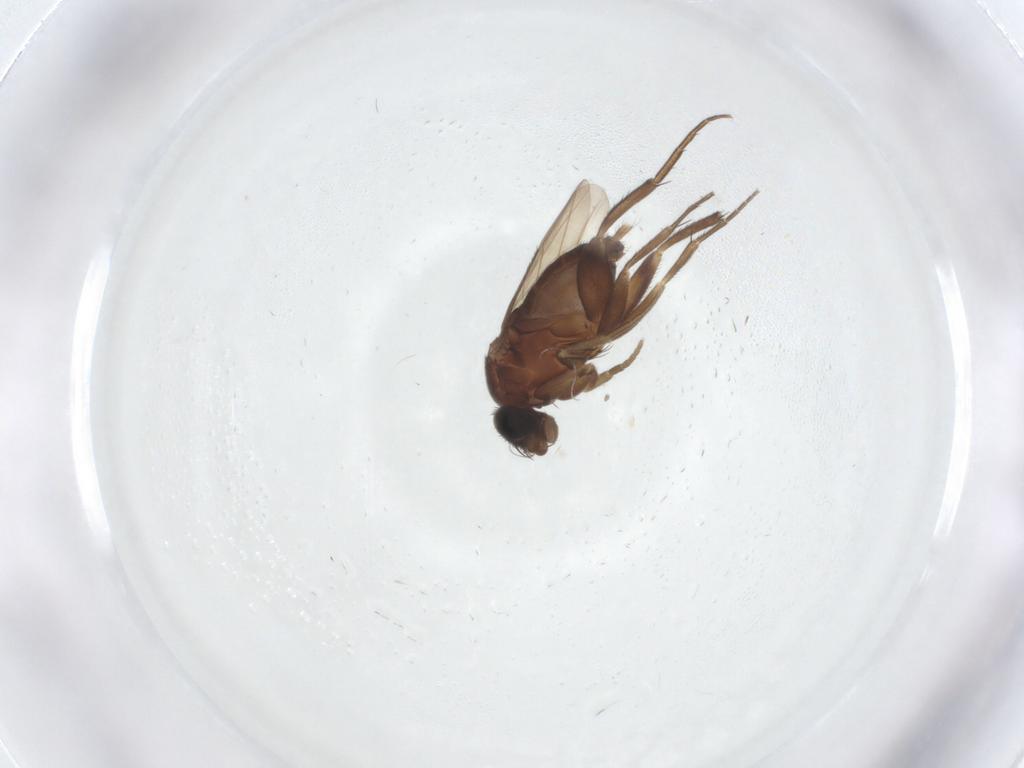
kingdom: Animalia
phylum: Arthropoda
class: Insecta
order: Diptera
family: Phoridae
